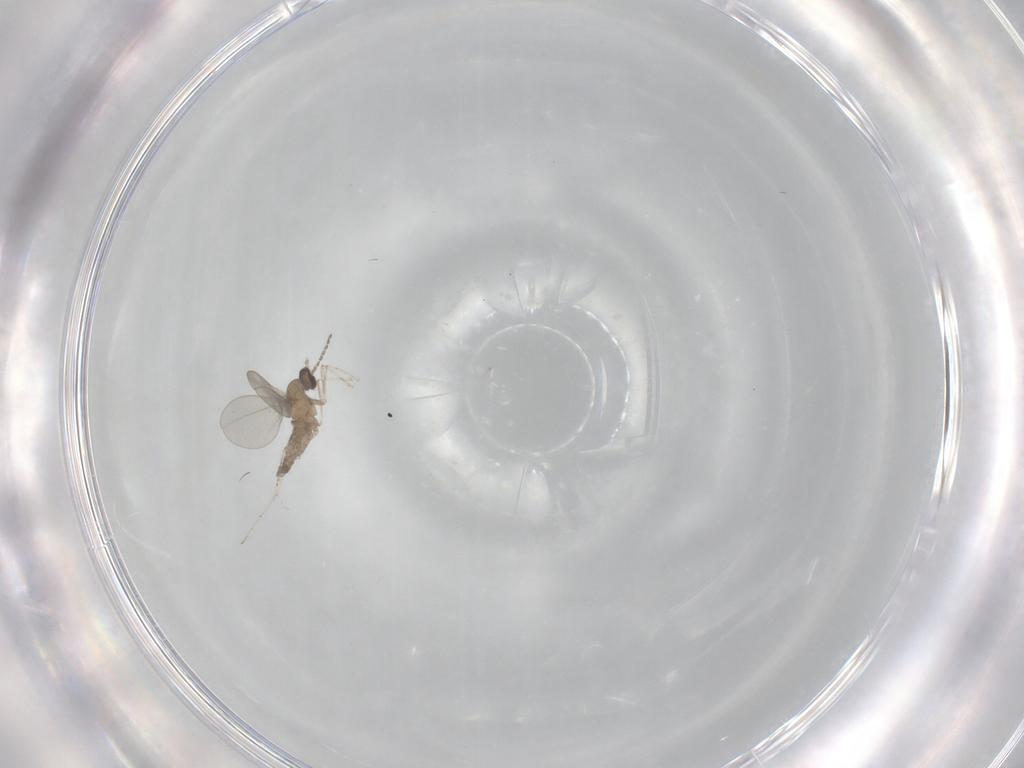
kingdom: Animalia
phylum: Arthropoda
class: Insecta
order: Diptera
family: Cecidomyiidae
